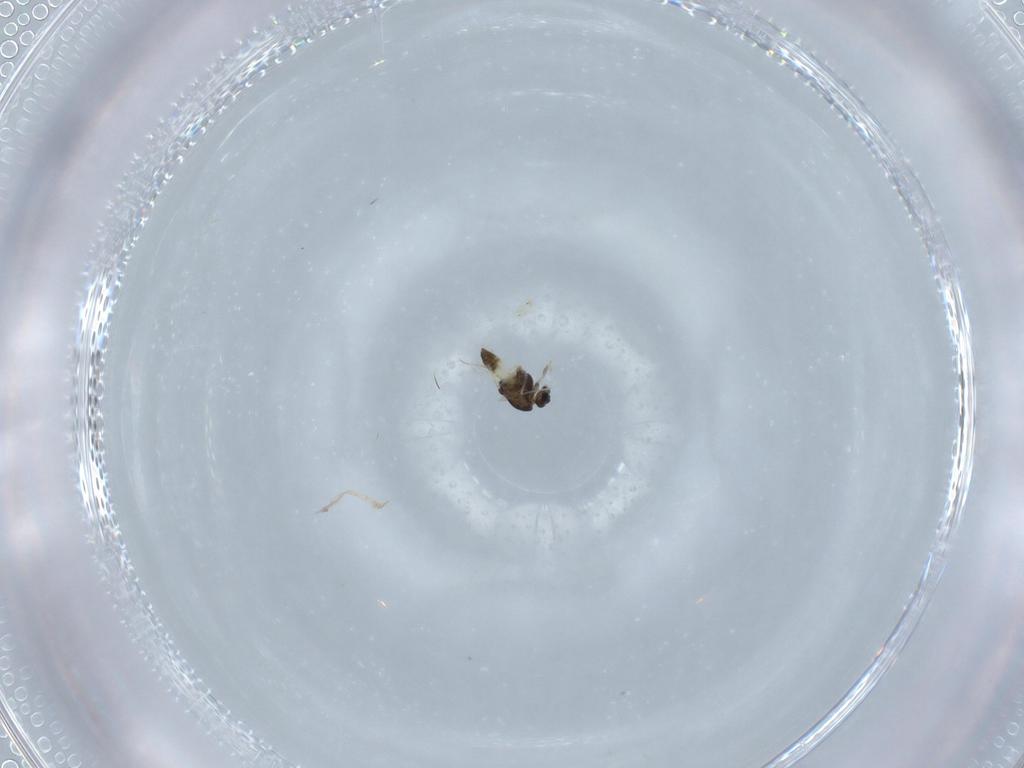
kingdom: Animalia
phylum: Arthropoda
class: Insecta
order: Diptera
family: Chironomidae
